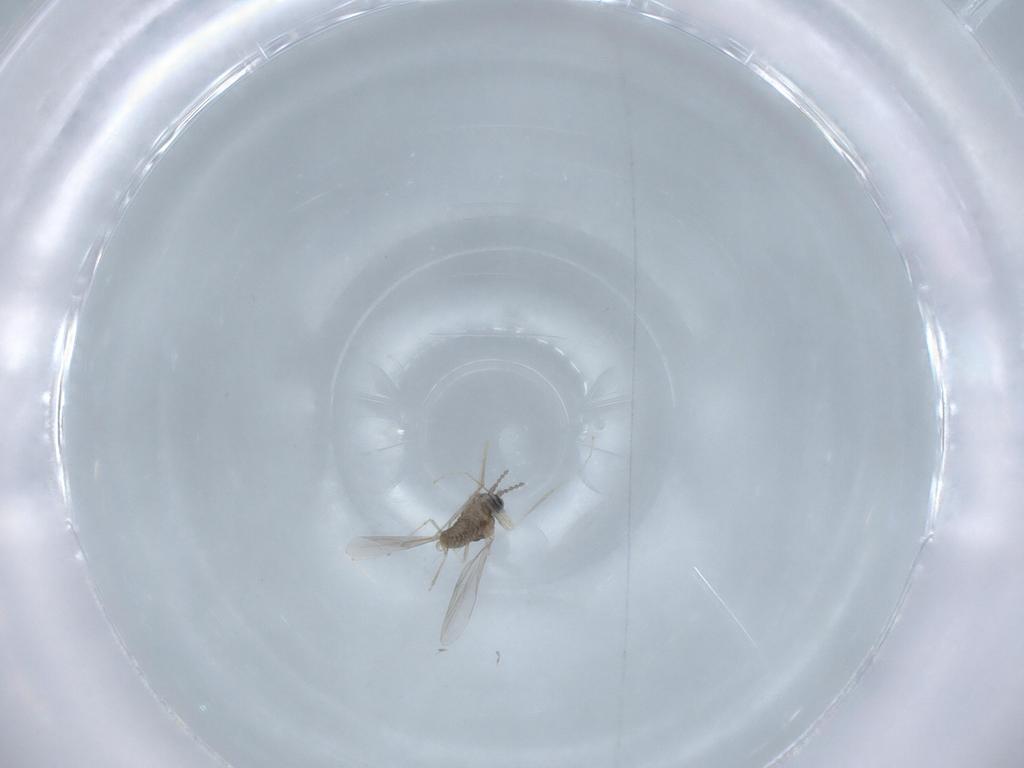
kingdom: Animalia
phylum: Arthropoda
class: Insecta
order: Diptera
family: Cecidomyiidae
